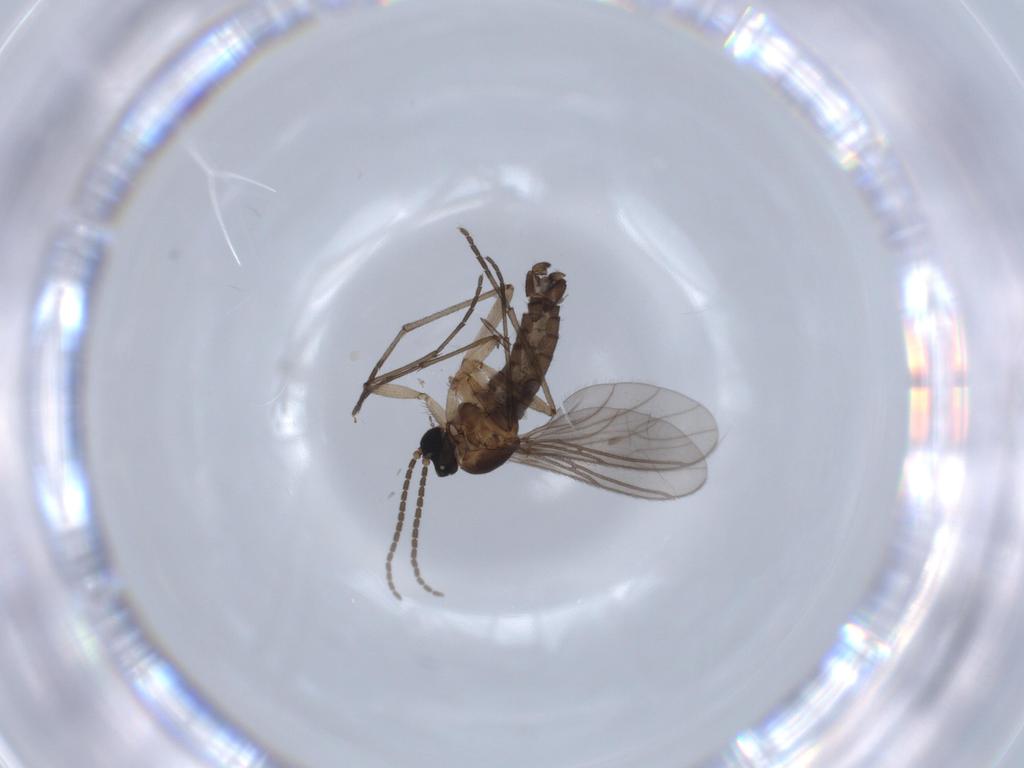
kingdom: Animalia
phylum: Arthropoda
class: Insecta
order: Diptera
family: Sciaridae
